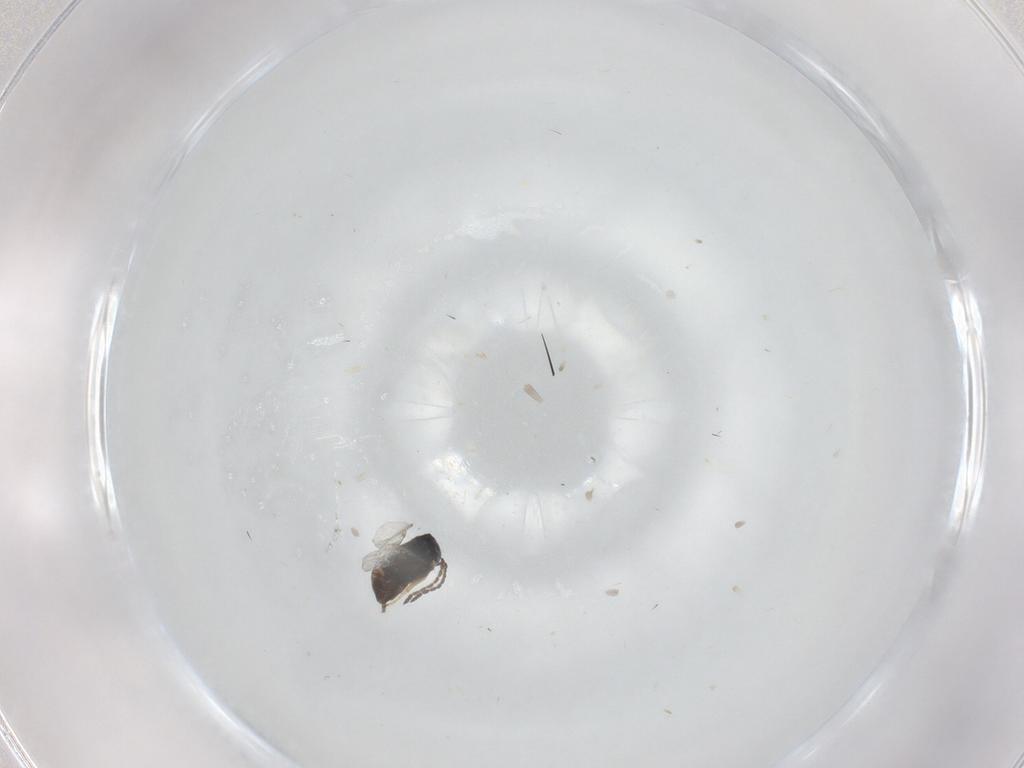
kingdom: Animalia
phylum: Arthropoda
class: Insecta
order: Hymenoptera
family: Encyrtidae
